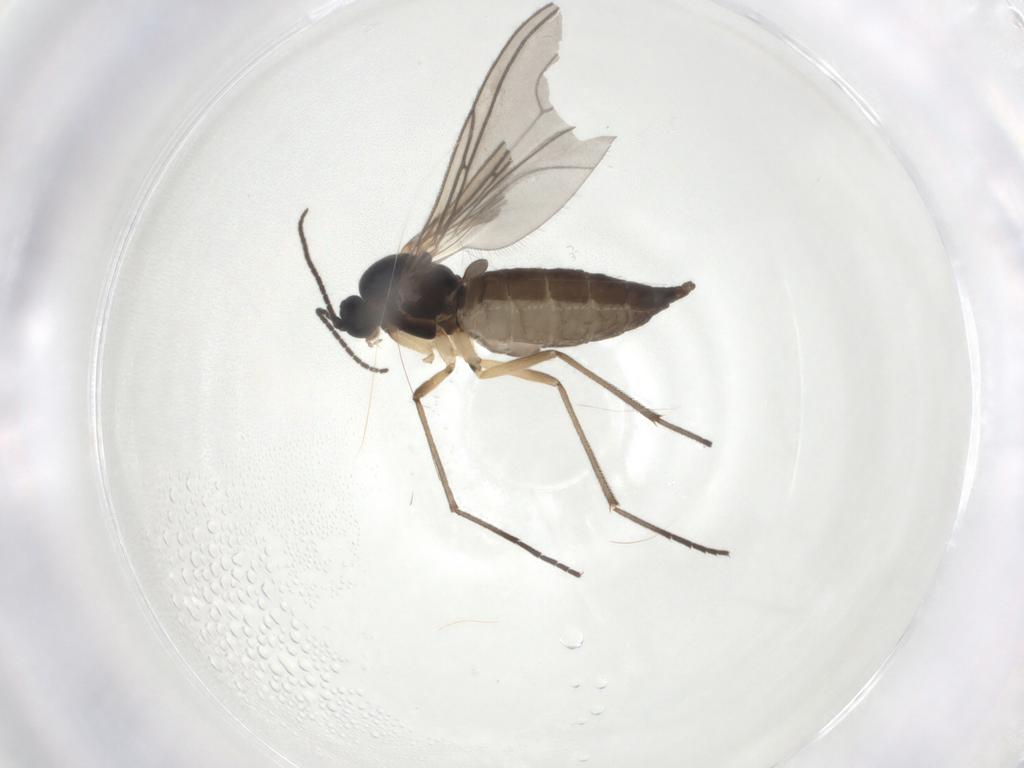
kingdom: Animalia
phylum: Arthropoda
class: Insecta
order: Diptera
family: Sciaridae
